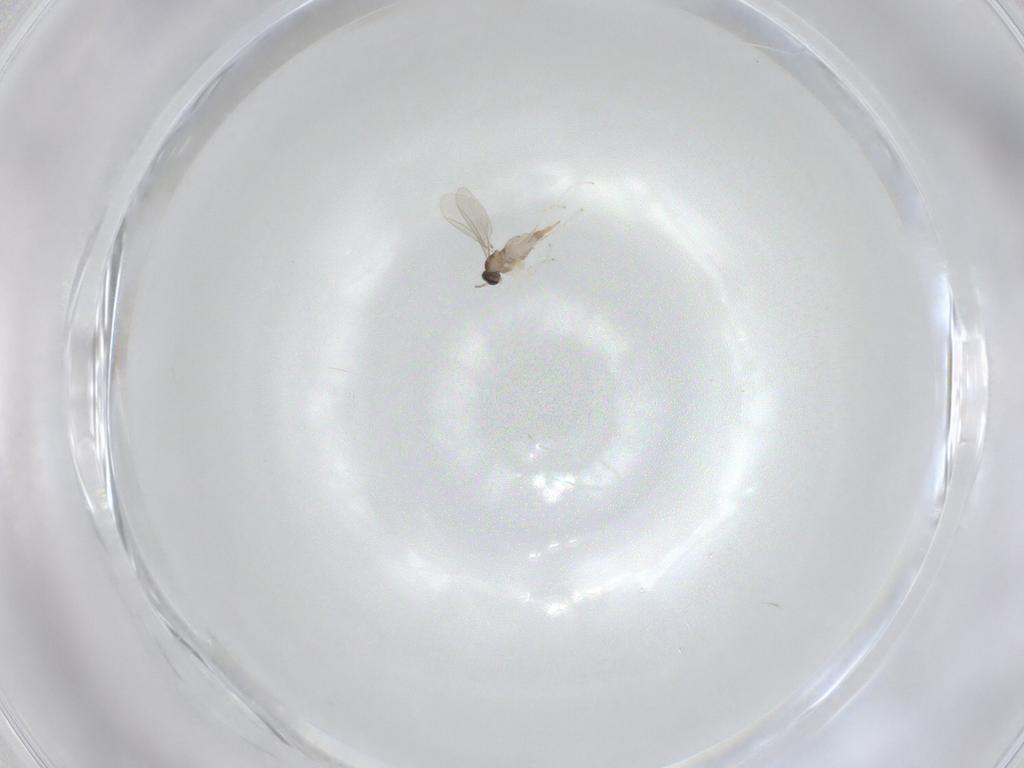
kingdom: Animalia
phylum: Arthropoda
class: Insecta
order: Diptera
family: Cecidomyiidae
